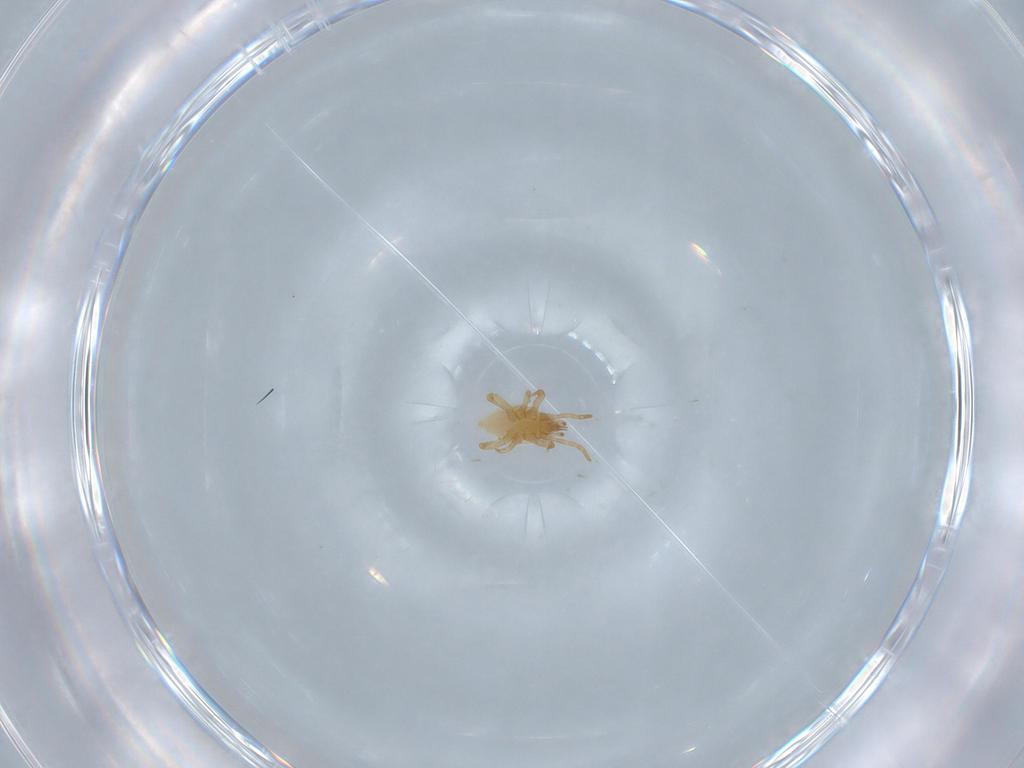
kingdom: Animalia
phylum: Arthropoda
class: Arachnida
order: Mesostigmata
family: Parasitidae
